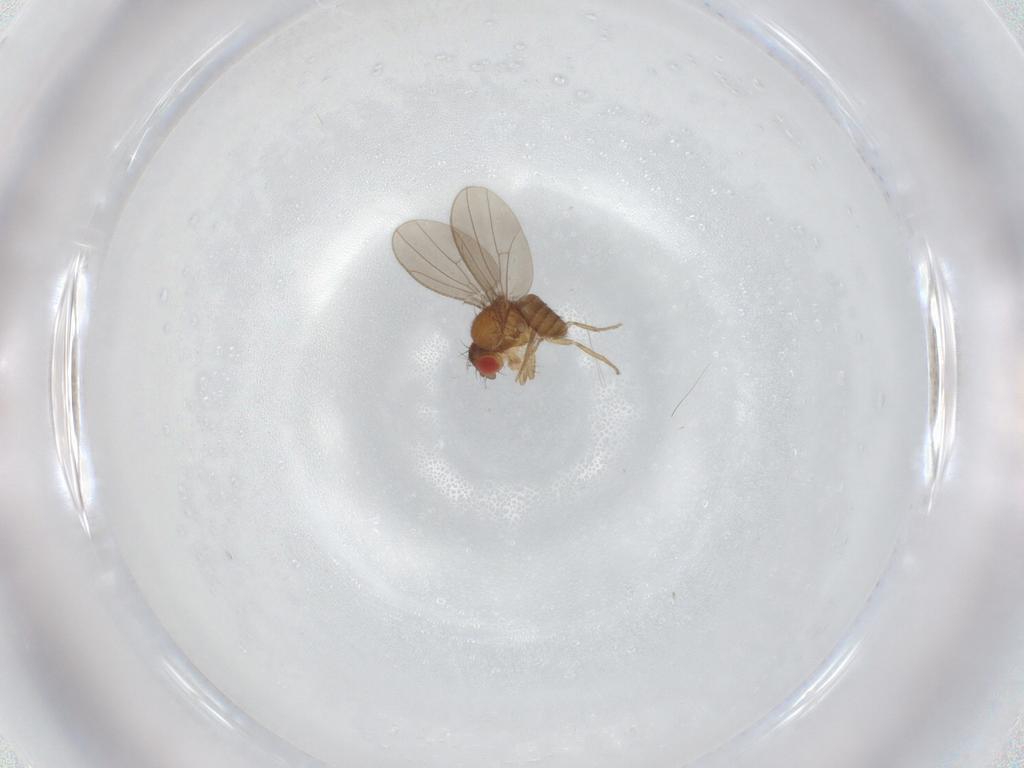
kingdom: Animalia
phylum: Arthropoda
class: Insecta
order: Diptera
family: Drosophilidae
